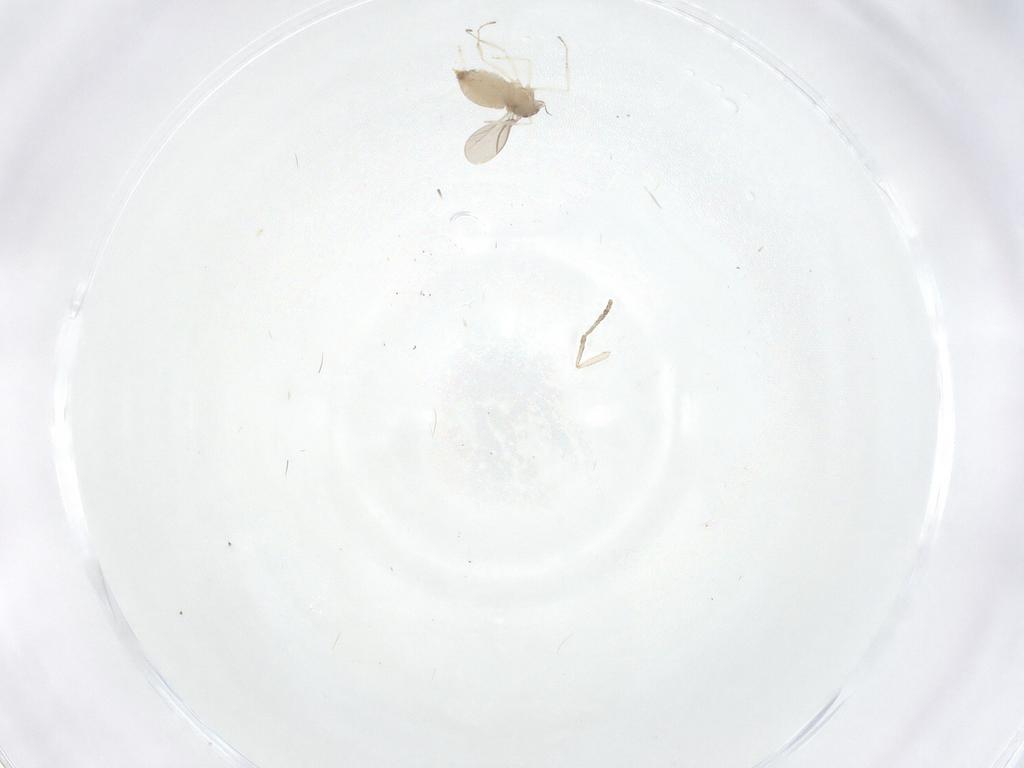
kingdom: Animalia
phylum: Arthropoda
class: Insecta
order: Diptera
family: Cecidomyiidae
